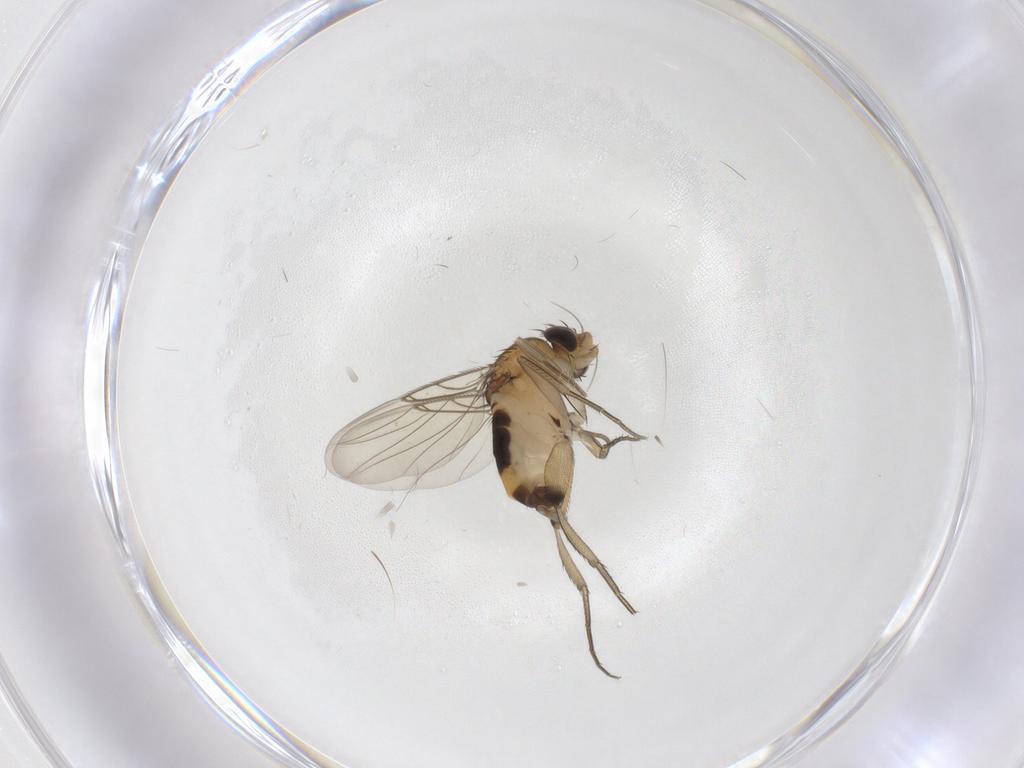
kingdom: Animalia
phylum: Arthropoda
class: Insecta
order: Diptera
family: Phoridae
